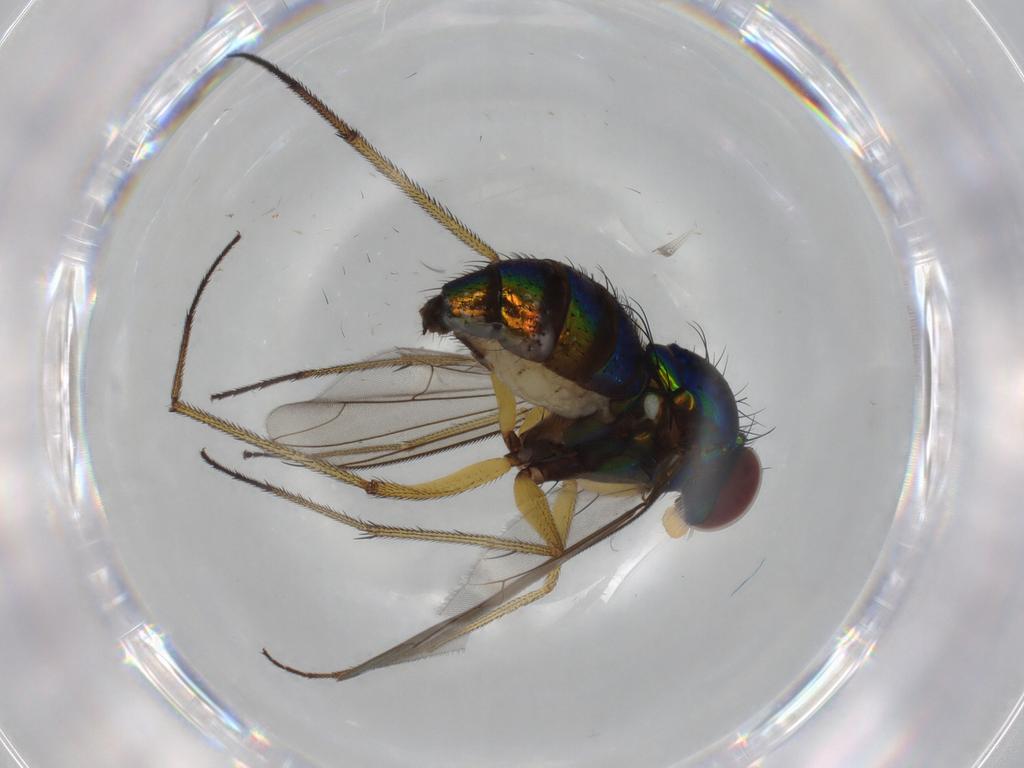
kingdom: Animalia
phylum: Arthropoda
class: Insecta
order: Diptera
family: Dolichopodidae
